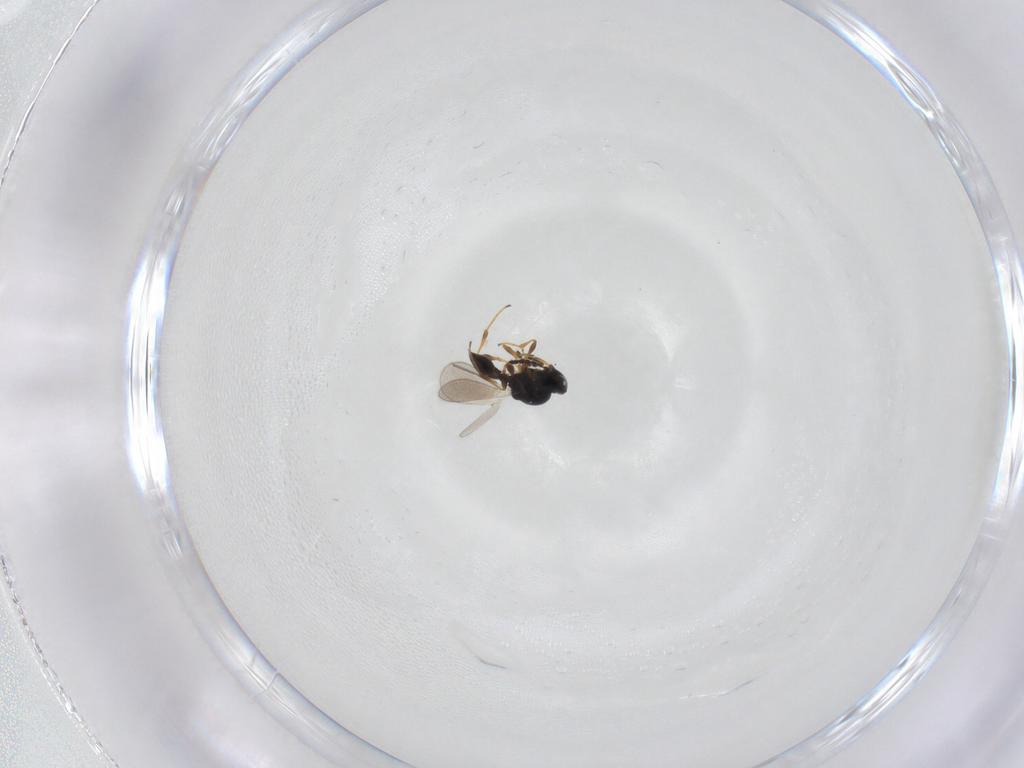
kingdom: Animalia
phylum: Arthropoda
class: Insecta
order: Hymenoptera
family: Platygastridae
